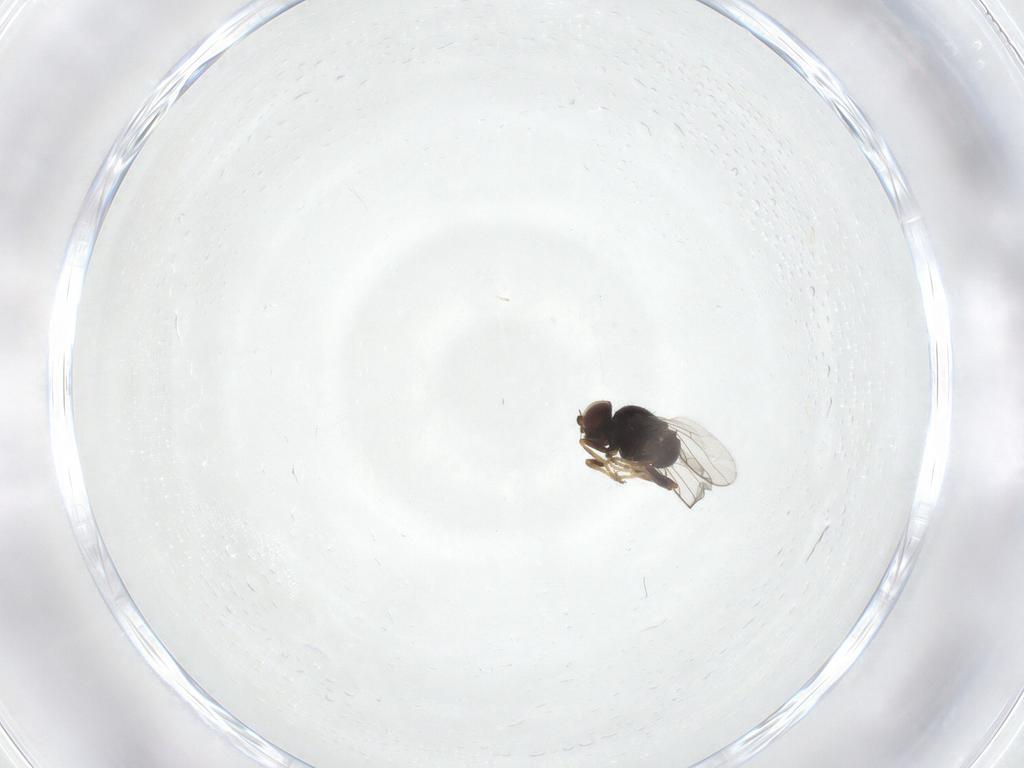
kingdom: Animalia
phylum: Arthropoda
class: Insecta
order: Diptera
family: Chloropidae
